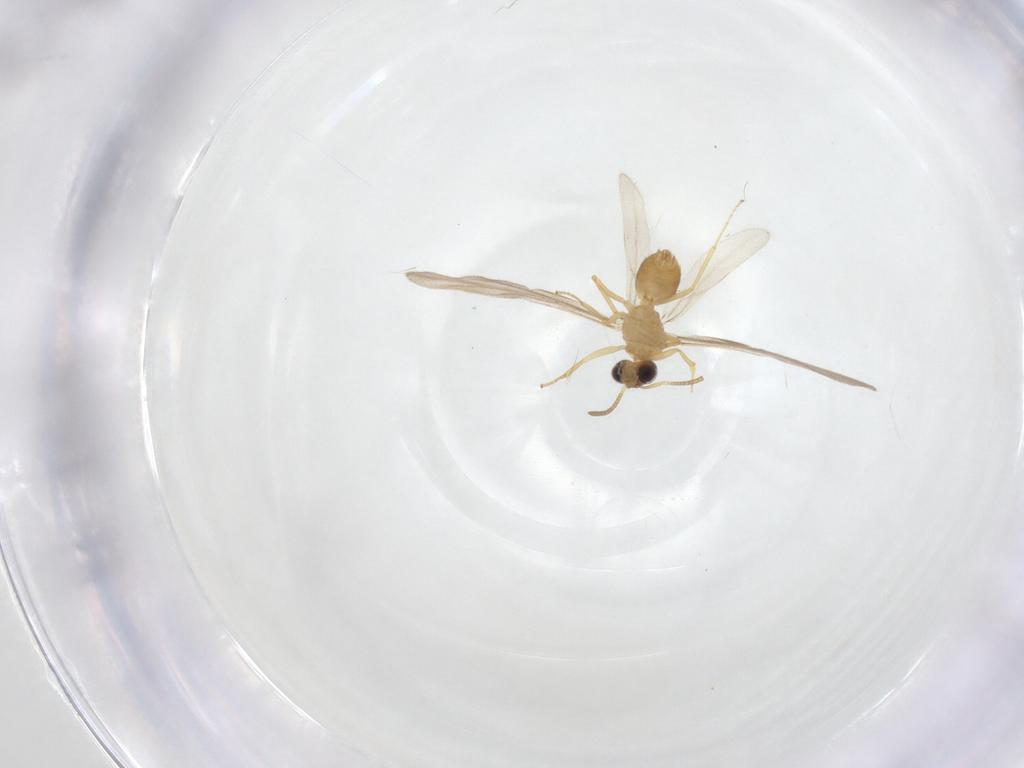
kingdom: Animalia
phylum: Arthropoda
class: Insecta
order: Hymenoptera
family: Formicidae
